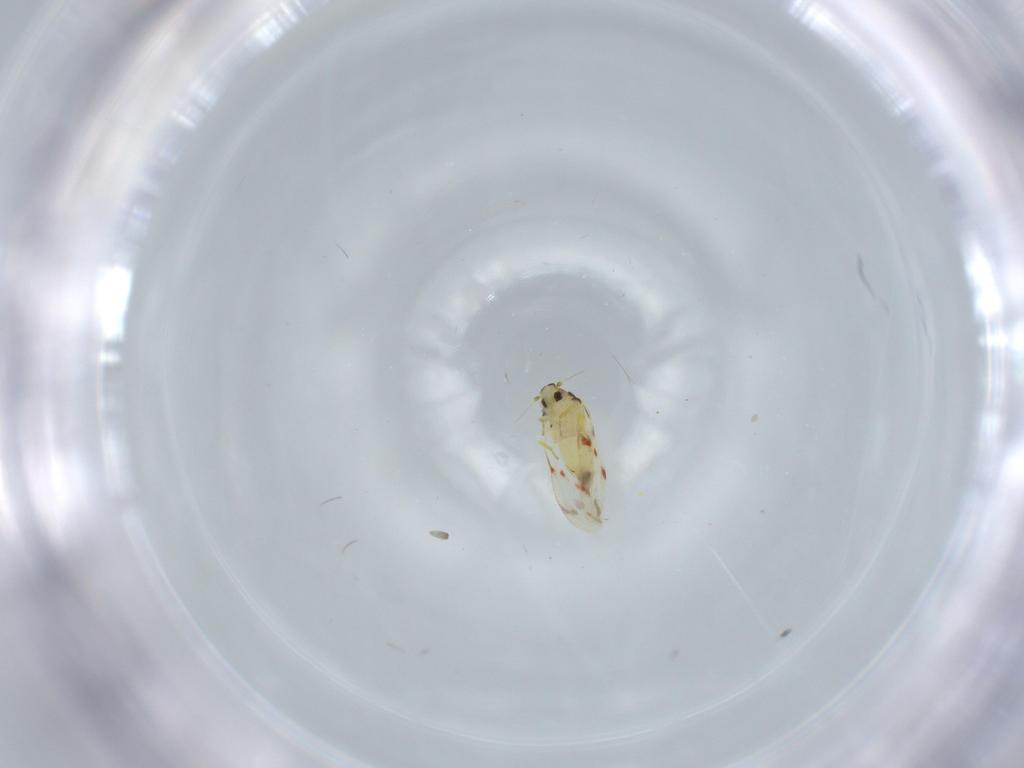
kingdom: Animalia
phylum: Arthropoda
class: Insecta
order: Hemiptera
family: Aleyrodidae
